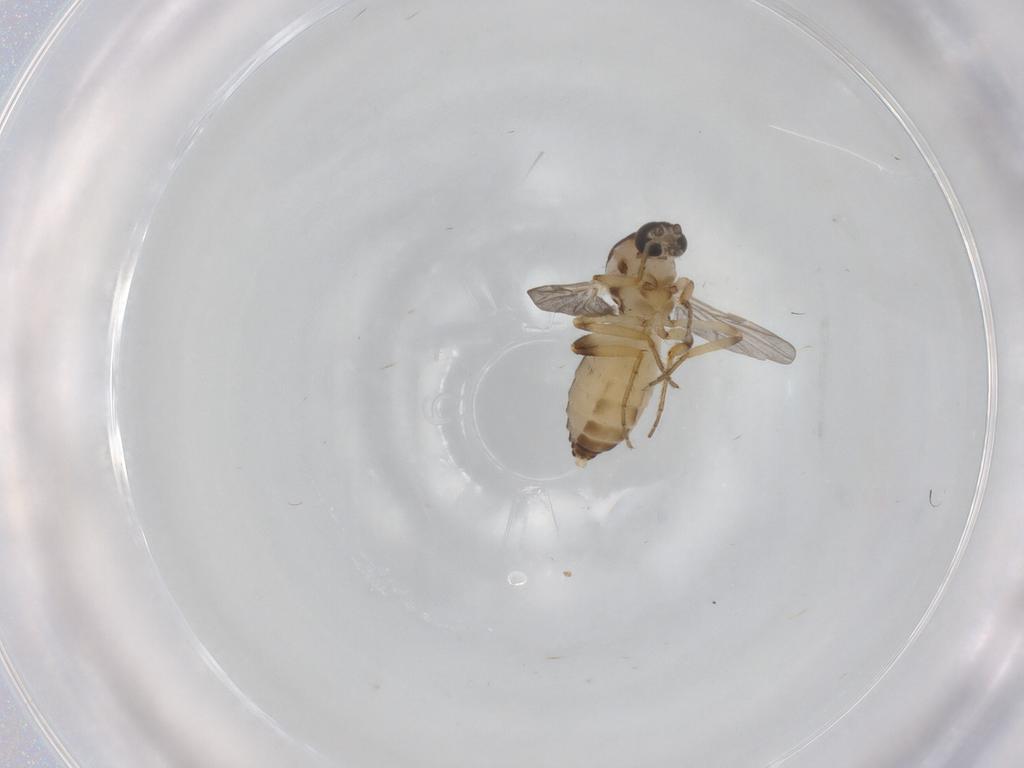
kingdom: Animalia
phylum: Arthropoda
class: Insecta
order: Diptera
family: Ceratopogonidae
